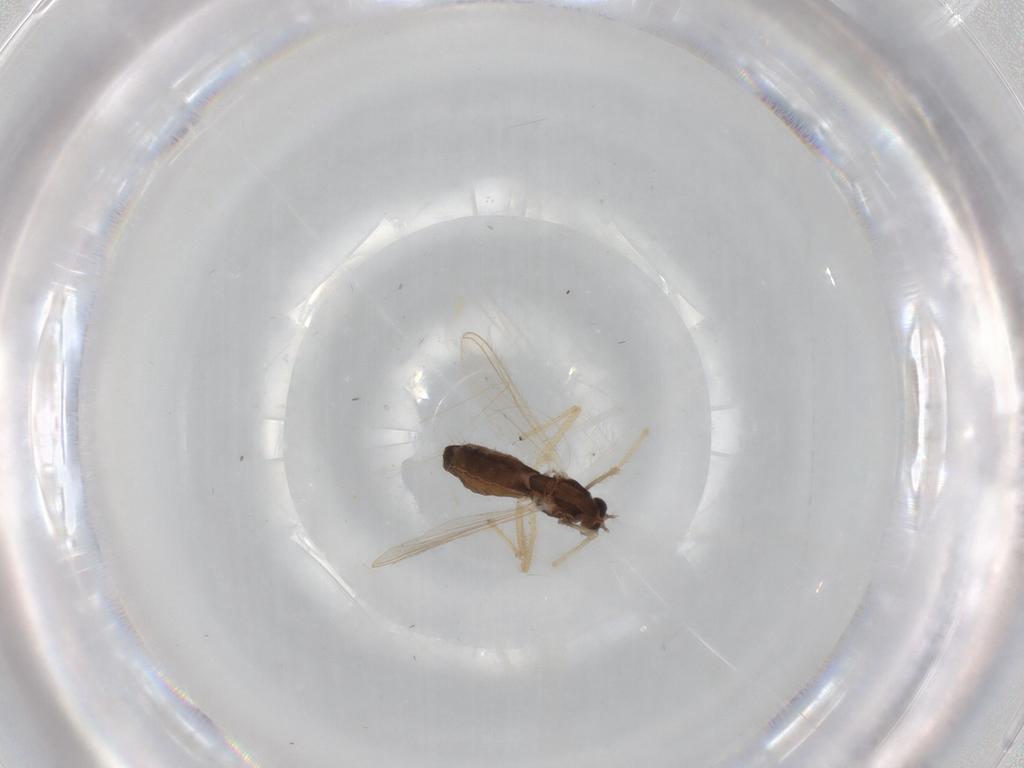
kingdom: Animalia
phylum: Arthropoda
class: Insecta
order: Diptera
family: Chironomidae
